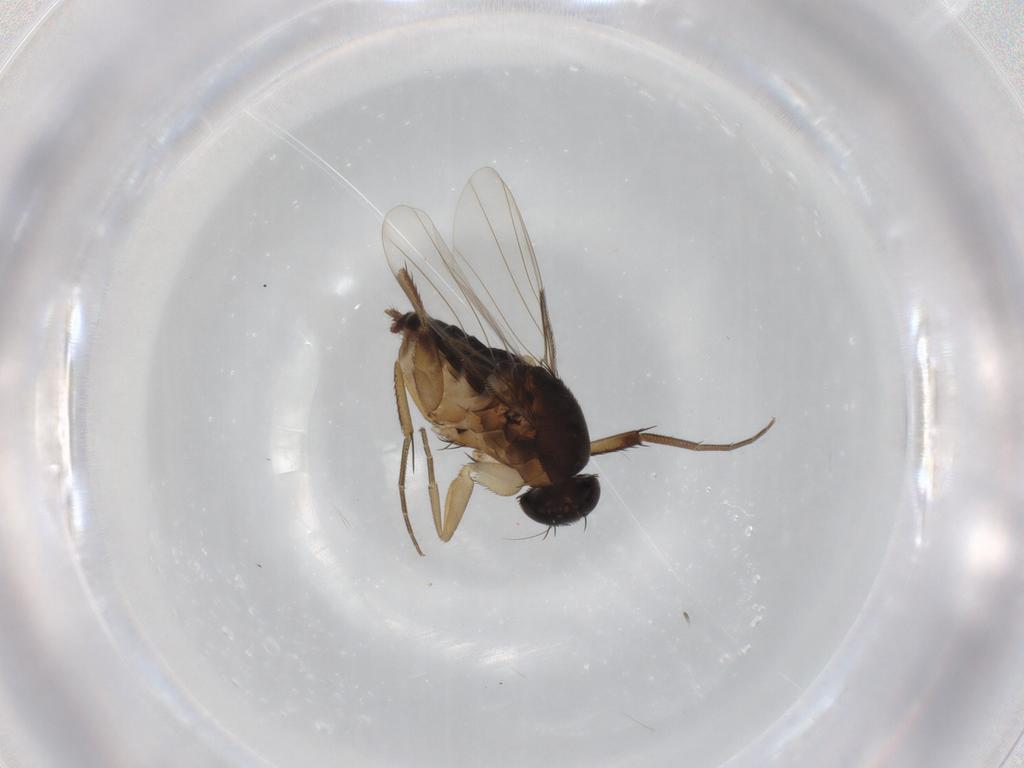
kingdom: Animalia
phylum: Arthropoda
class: Insecta
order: Diptera
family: Phoridae
